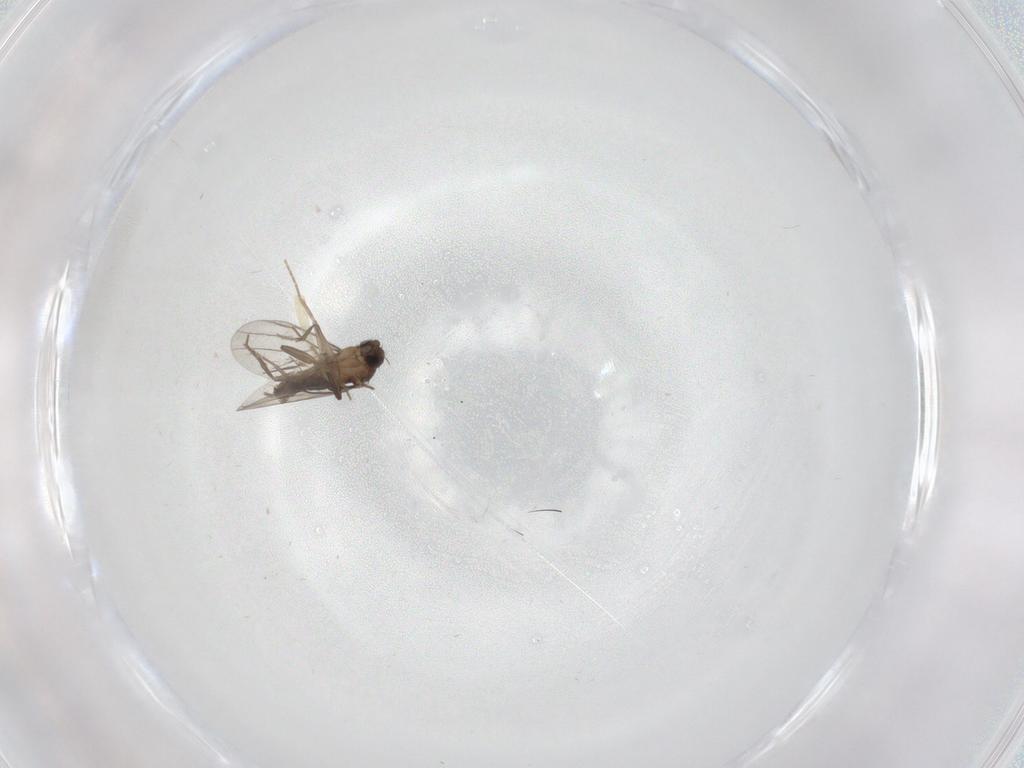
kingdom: Animalia
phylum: Arthropoda
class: Insecta
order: Diptera
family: Phoridae
